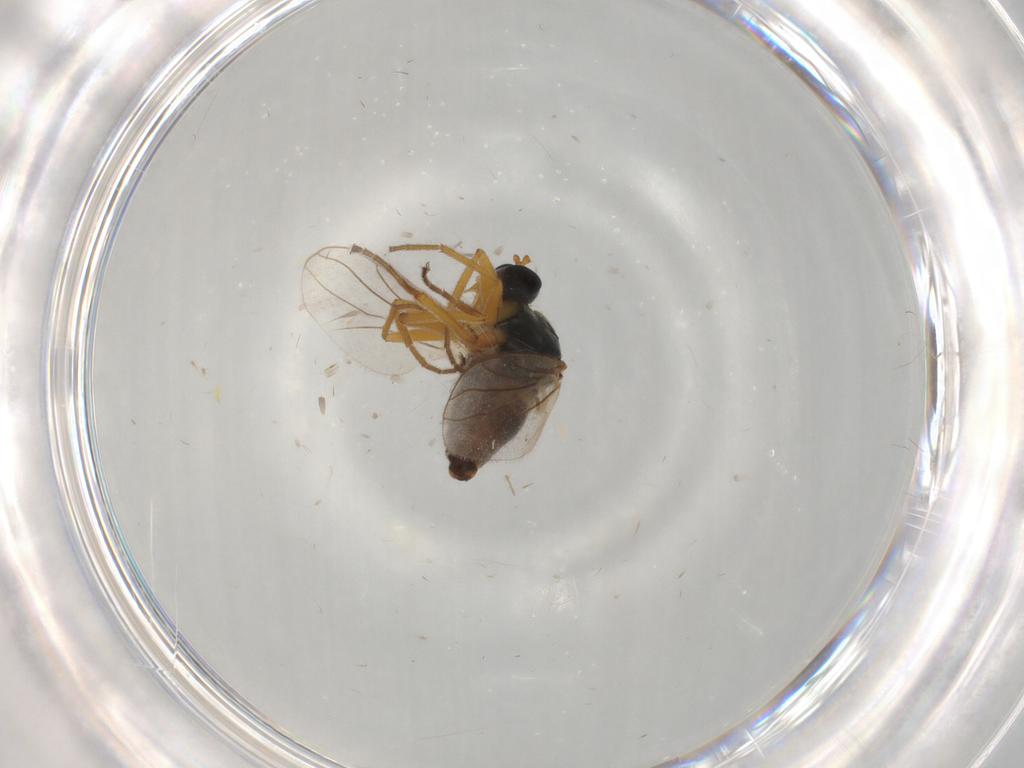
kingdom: Animalia
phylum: Arthropoda
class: Insecta
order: Diptera
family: Hybotidae
